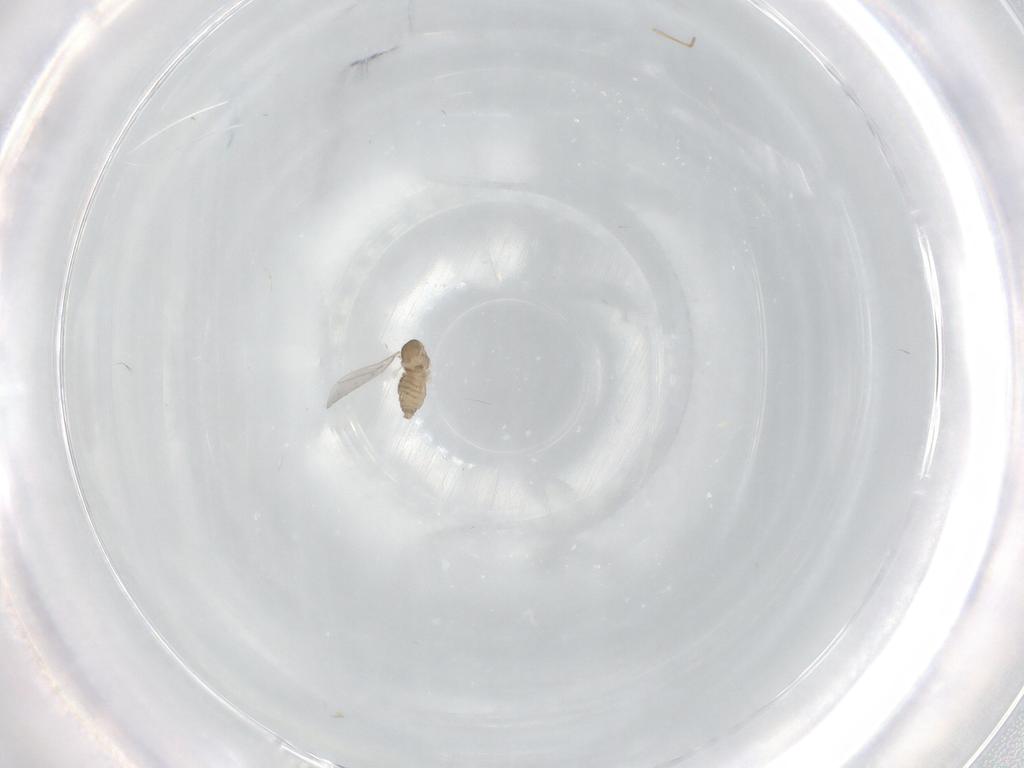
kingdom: Animalia
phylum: Arthropoda
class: Insecta
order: Diptera
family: Cecidomyiidae
